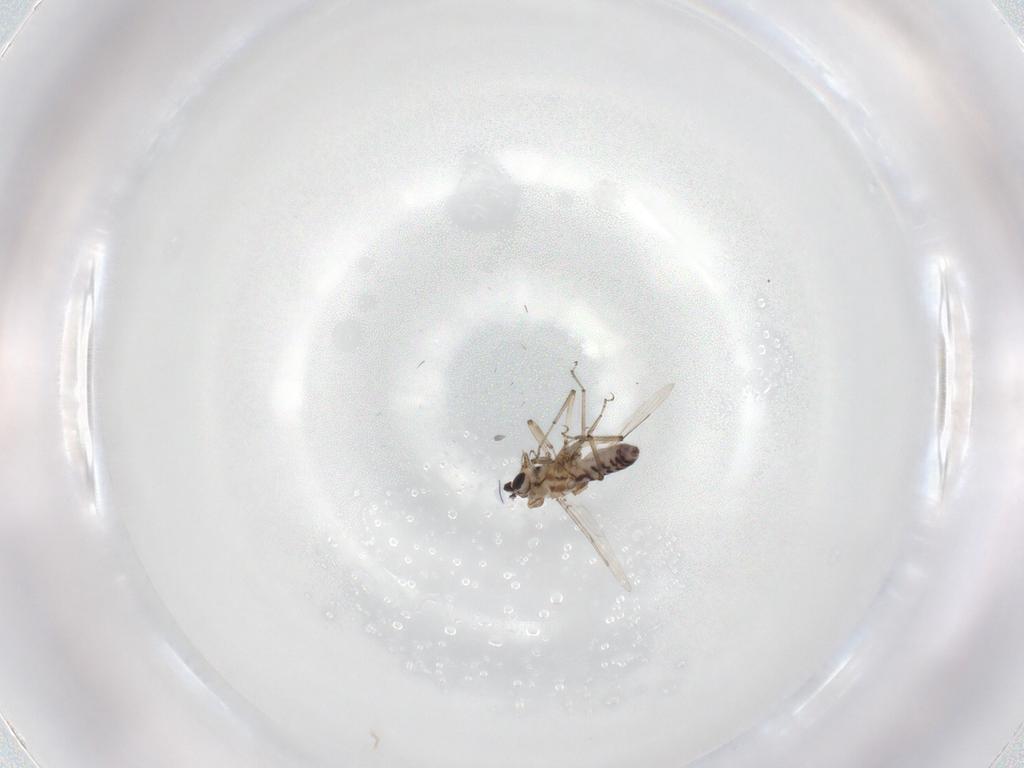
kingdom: Animalia
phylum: Arthropoda
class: Insecta
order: Diptera
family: Ceratopogonidae
